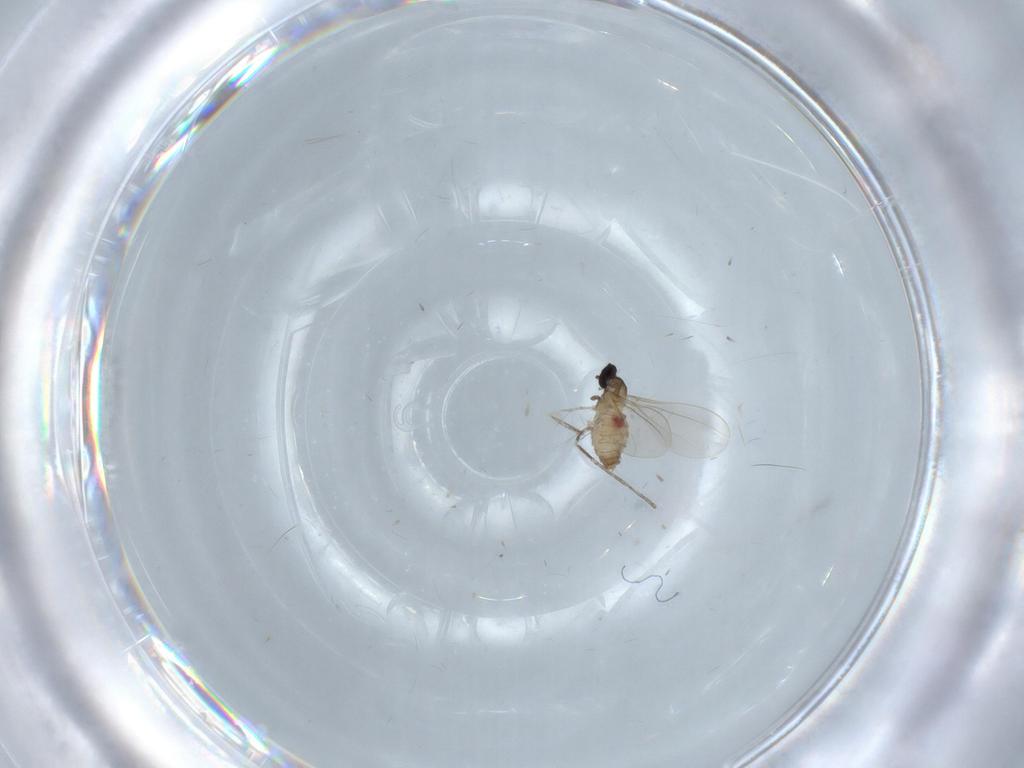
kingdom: Animalia
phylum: Arthropoda
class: Insecta
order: Diptera
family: Cecidomyiidae
